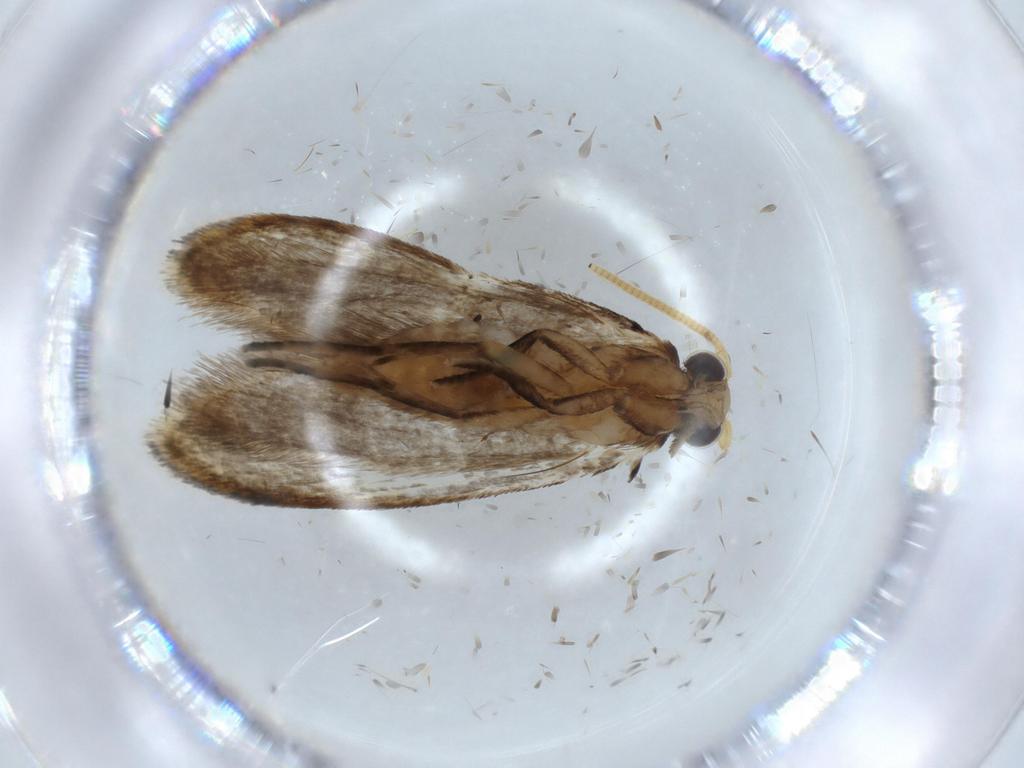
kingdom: Animalia
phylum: Arthropoda
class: Insecta
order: Lepidoptera
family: Tineidae
